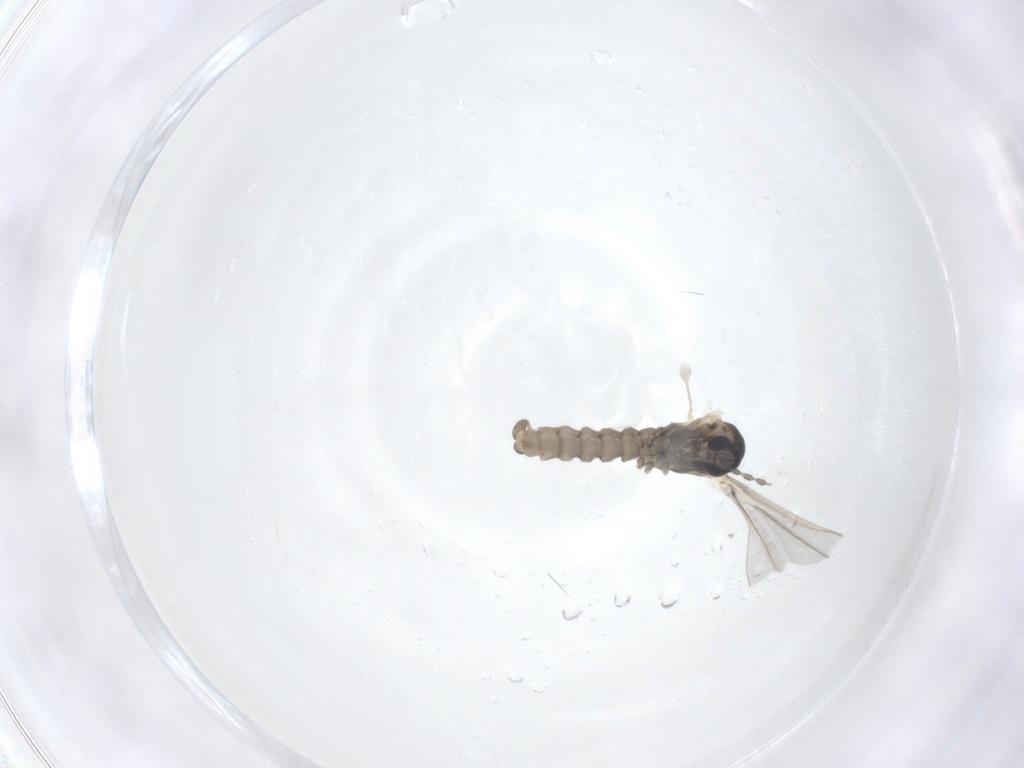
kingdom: Animalia
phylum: Arthropoda
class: Insecta
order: Diptera
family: Cecidomyiidae
